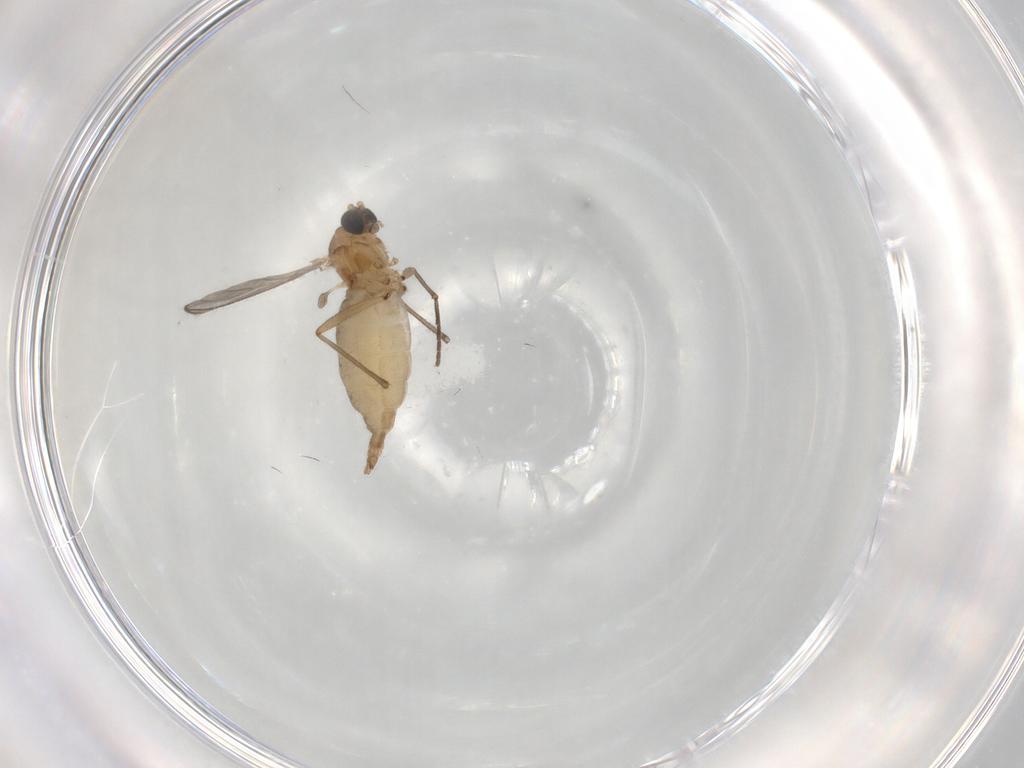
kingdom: Animalia
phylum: Arthropoda
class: Insecta
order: Diptera
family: Sciaridae
